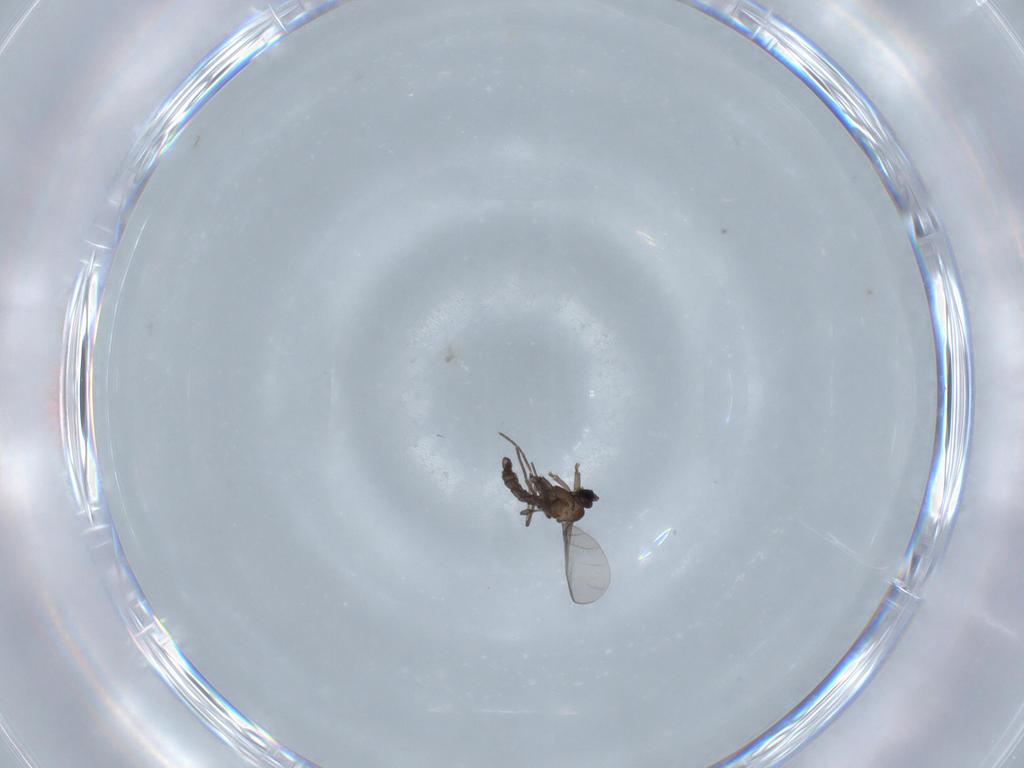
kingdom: Animalia
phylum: Arthropoda
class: Insecta
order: Diptera
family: Cecidomyiidae
